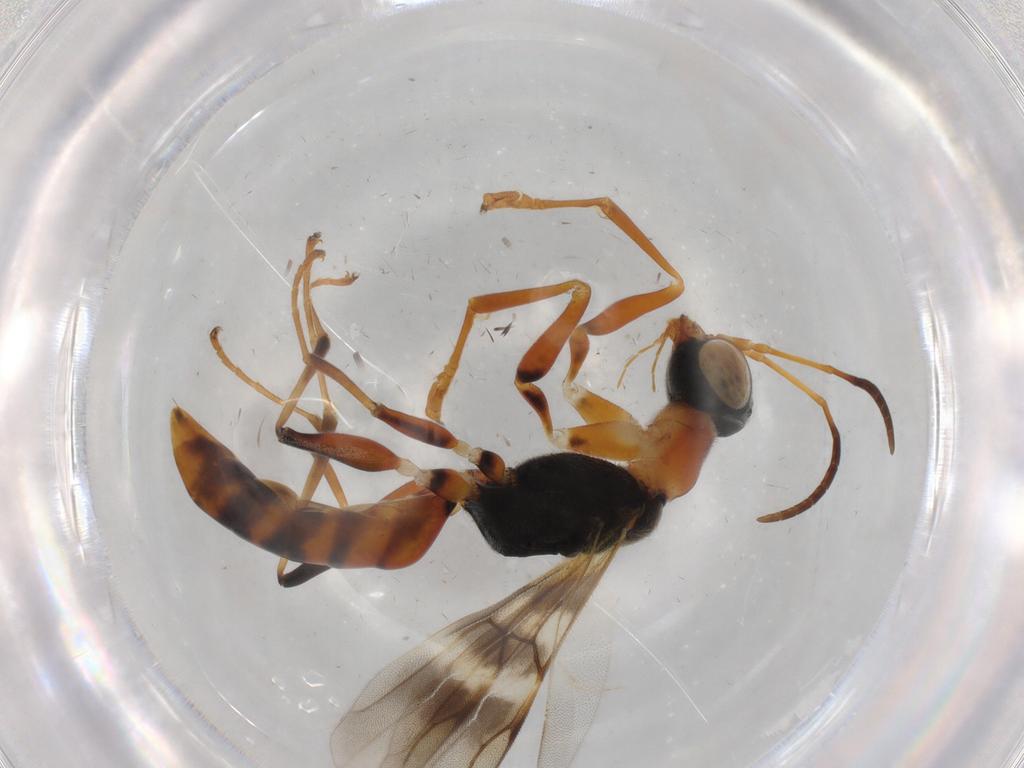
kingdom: Animalia
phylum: Arthropoda
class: Insecta
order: Hymenoptera
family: Dryinidae
